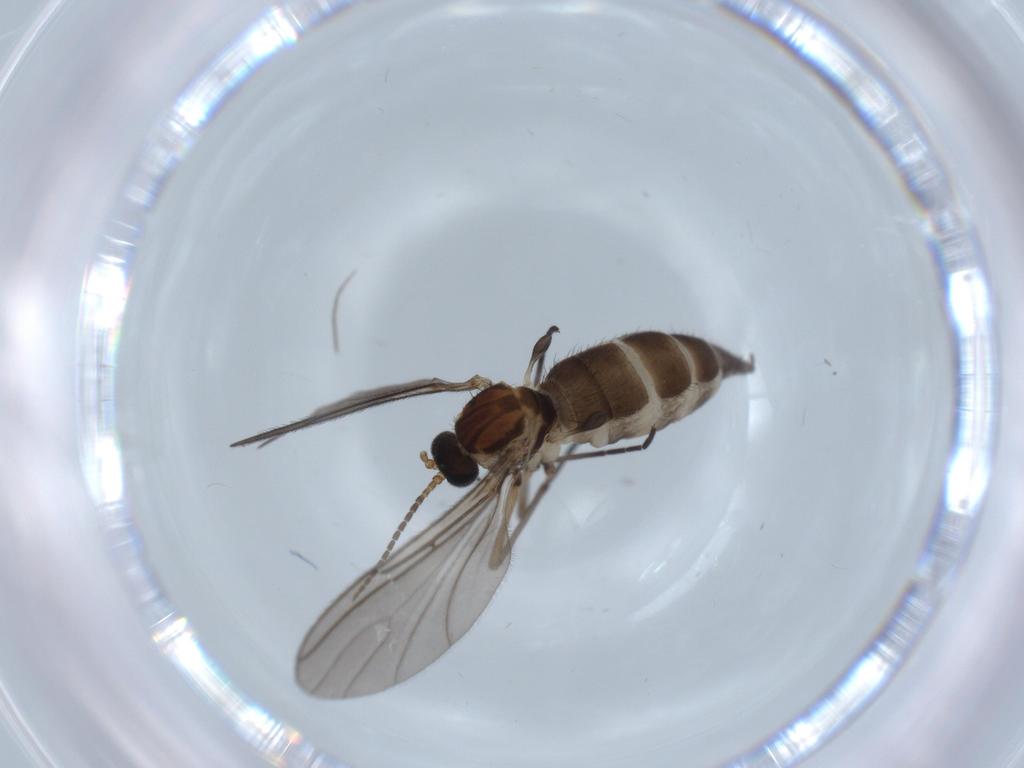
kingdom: Animalia
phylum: Arthropoda
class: Insecta
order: Diptera
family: Sciaridae
